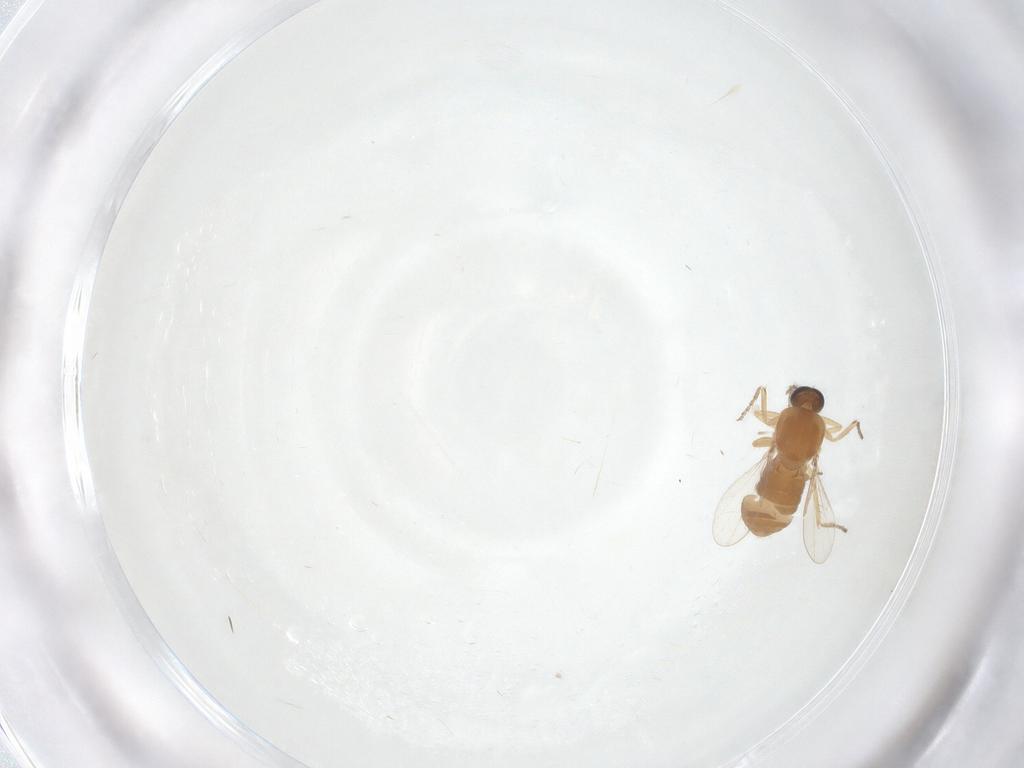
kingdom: Animalia
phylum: Arthropoda
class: Insecta
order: Diptera
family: Ceratopogonidae
